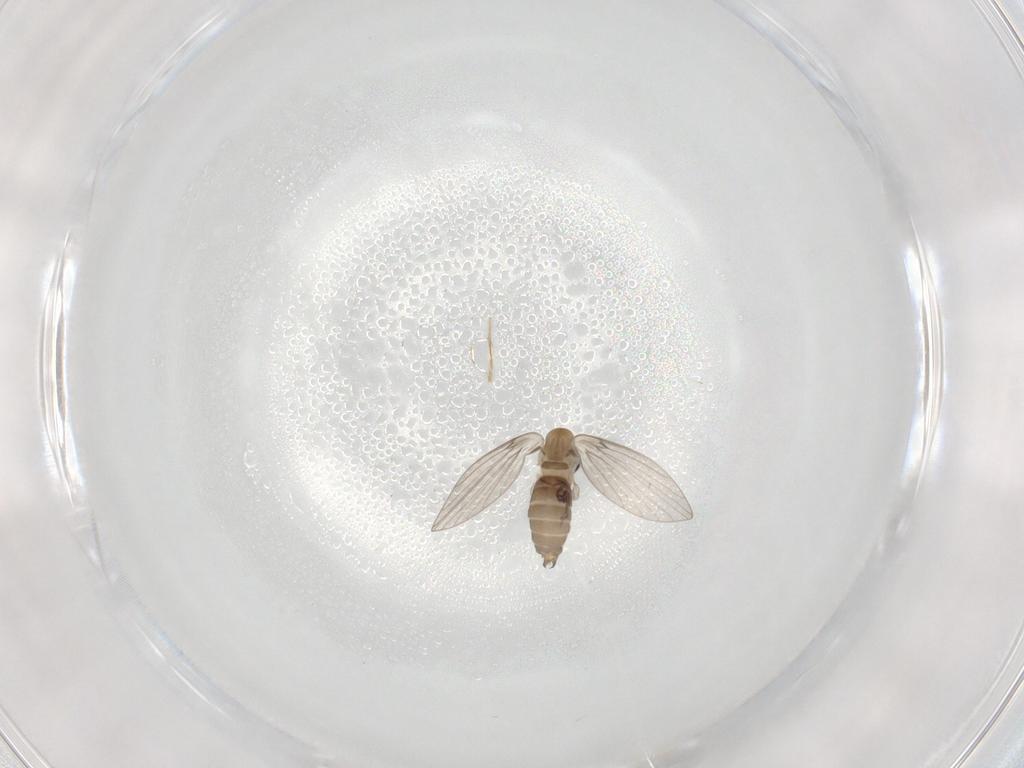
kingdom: Animalia
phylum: Arthropoda
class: Insecta
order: Diptera
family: Psychodidae
